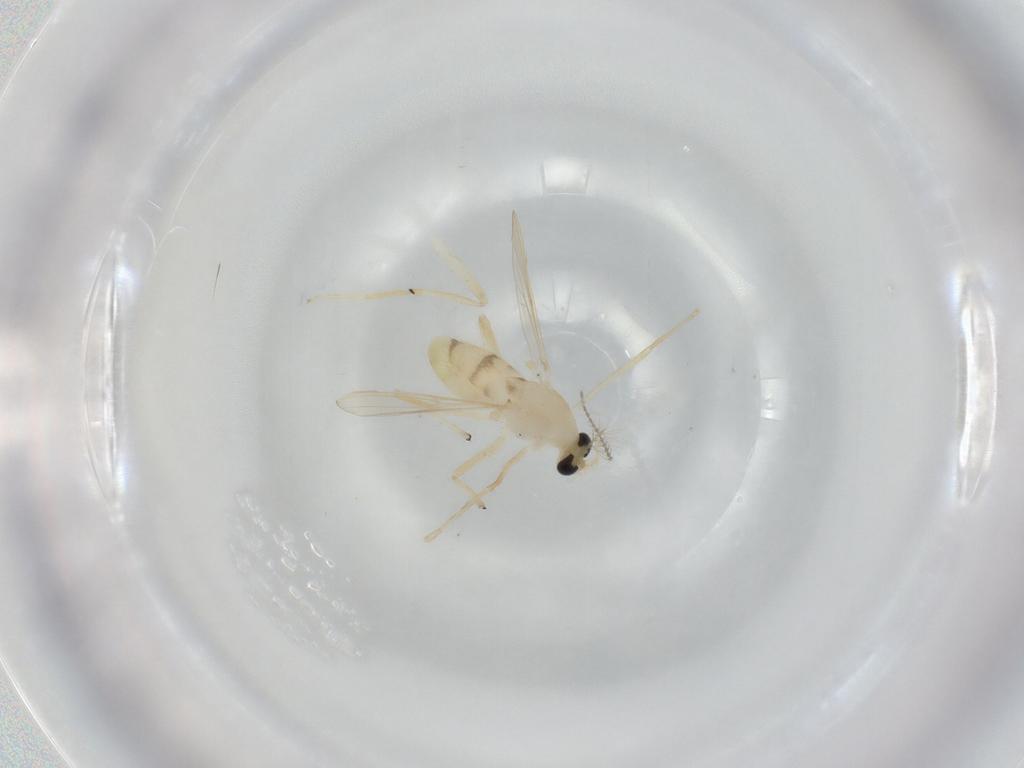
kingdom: Animalia
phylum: Arthropoda
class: Insecta
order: Diptera
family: Chironomidae
